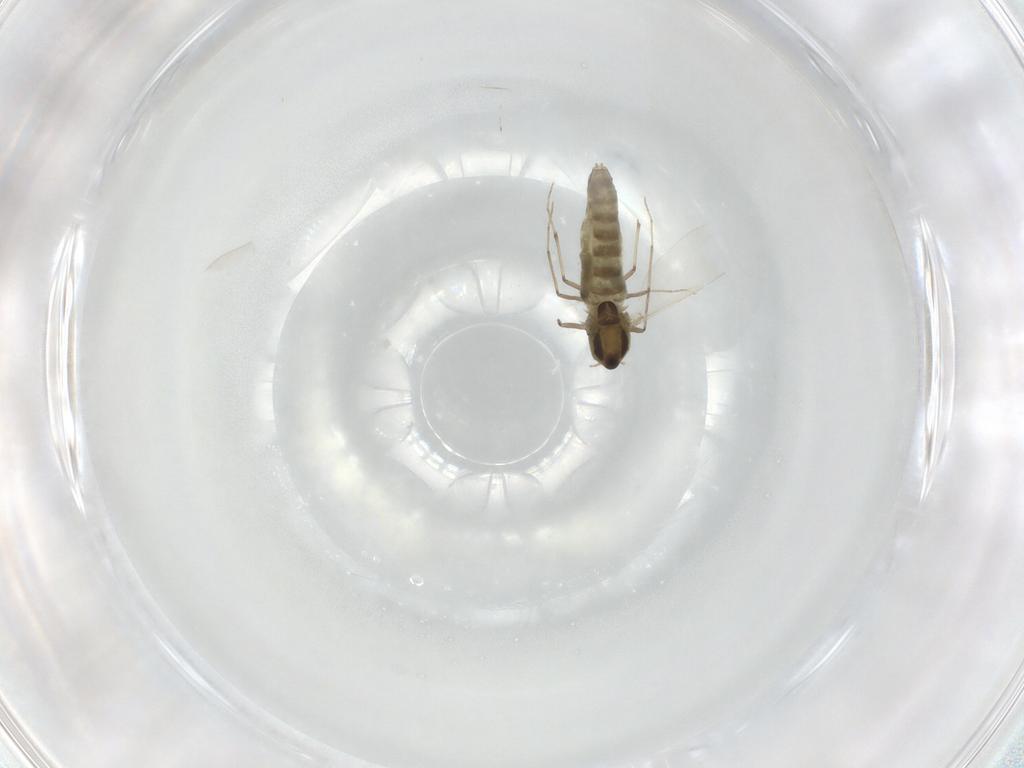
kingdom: Animalia
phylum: Arthropoda
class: Insecta
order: Diptera
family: Chironomidae
